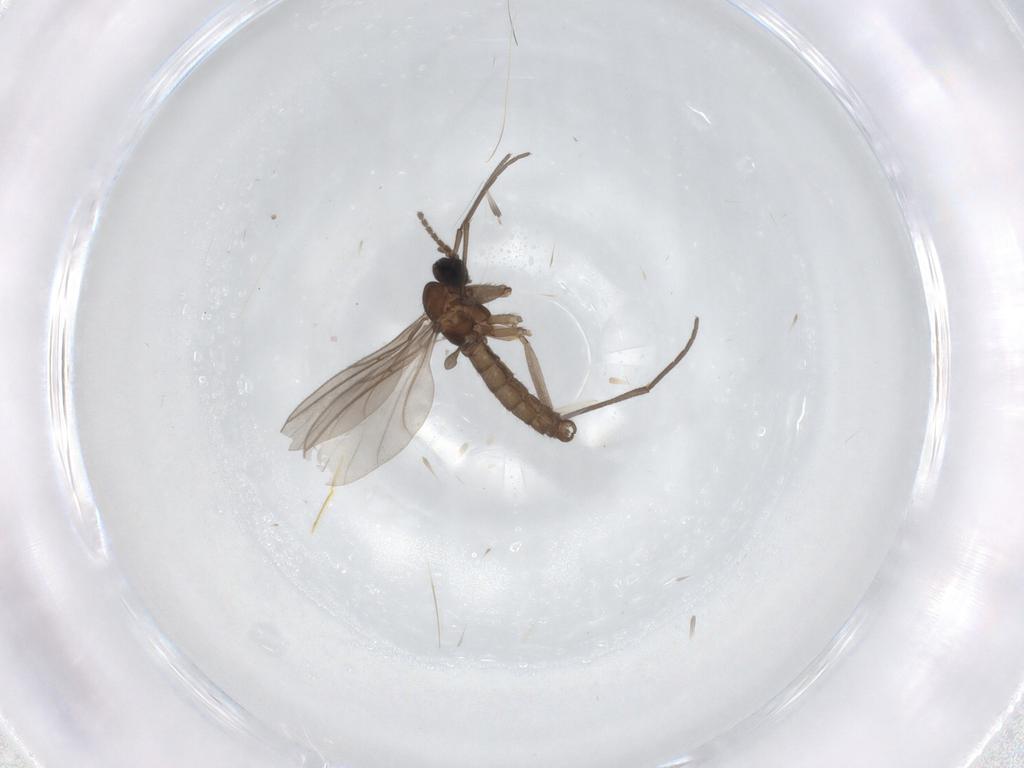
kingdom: Animalia
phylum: Arthropoda
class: Insecta
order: Diptera
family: Sciaridae
